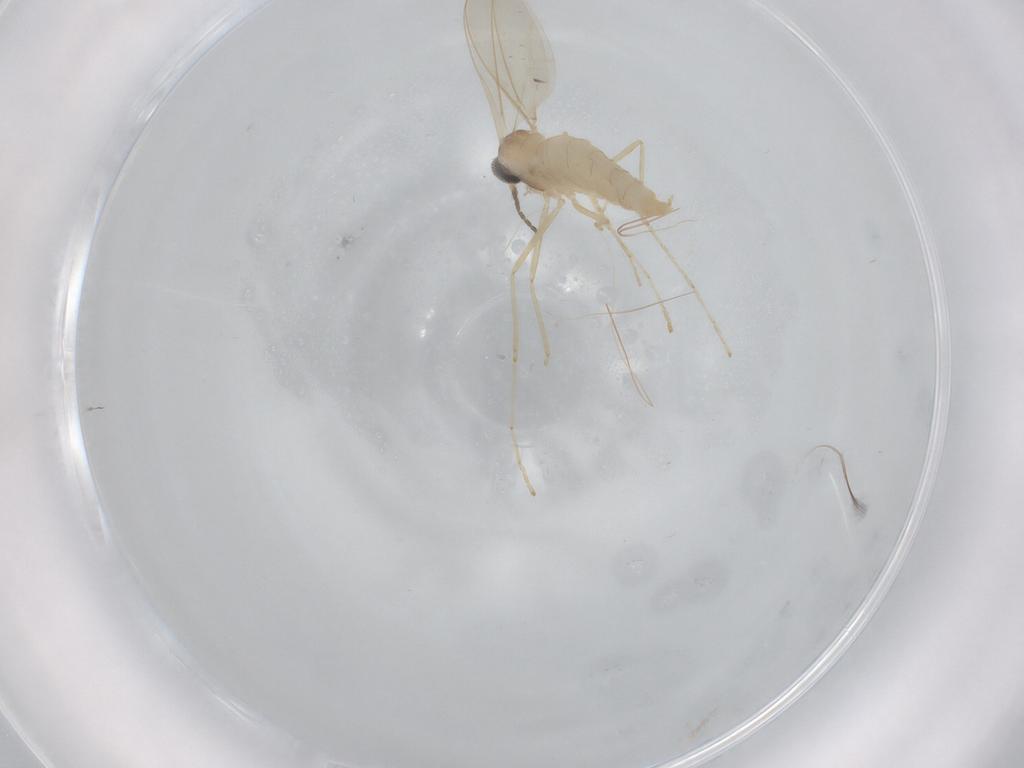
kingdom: Animalia
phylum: Arthropoda
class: Insecta
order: Diptera
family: Cecidomyiidae
